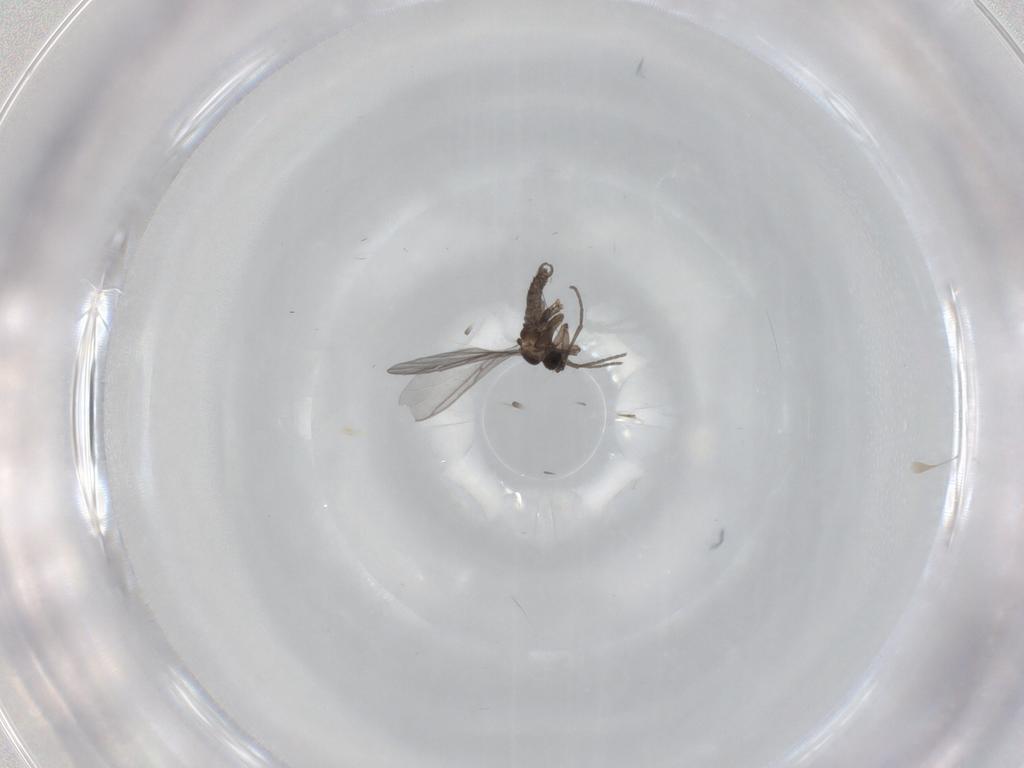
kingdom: Animalia
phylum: Arthropoda
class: Insecta
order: Diptera
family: Sciaridae
